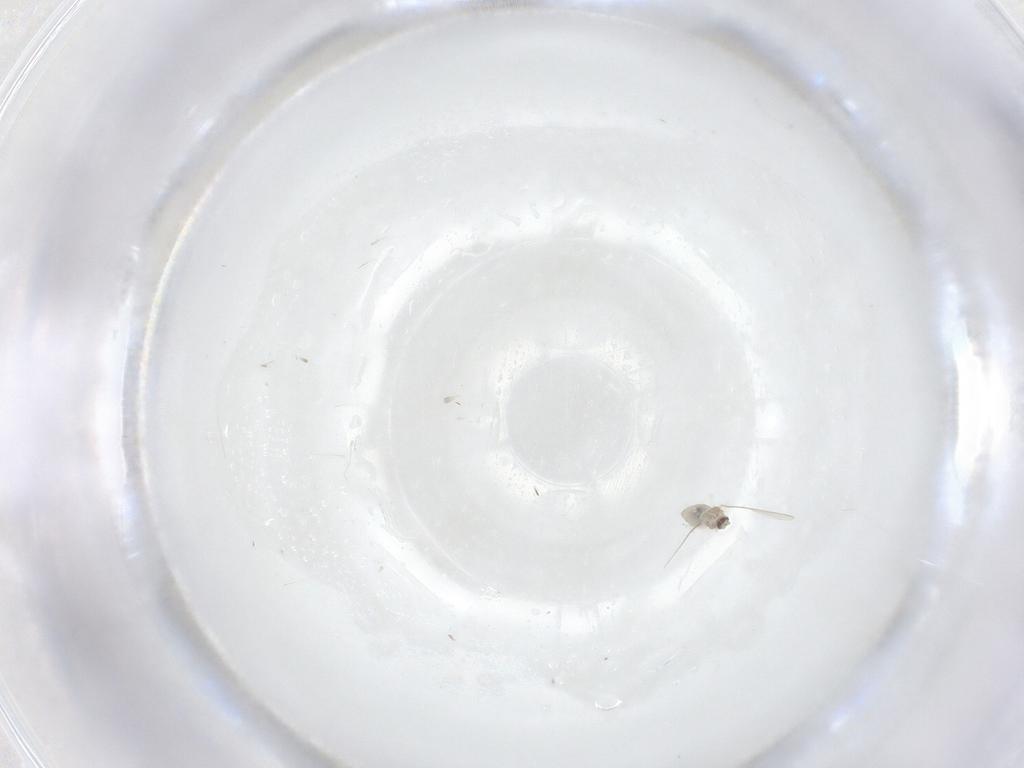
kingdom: Animalia
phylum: Arthropoda
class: Insecta
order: Diptera
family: Cecidomyiidae
